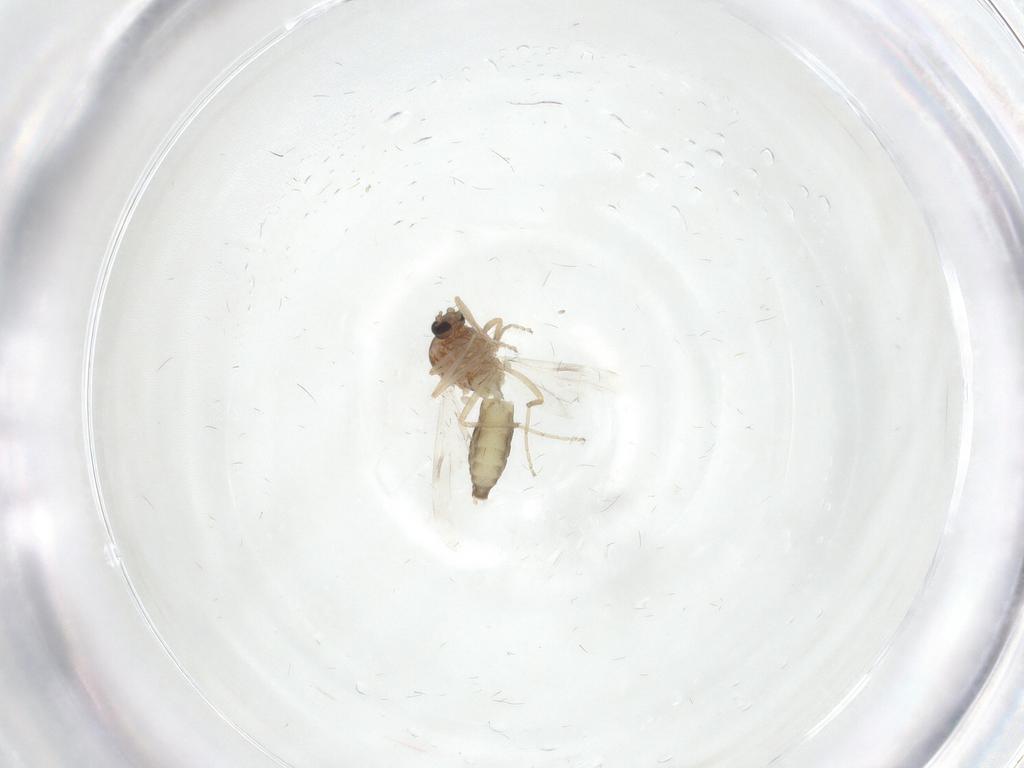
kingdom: Animalia
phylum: Arthropoda
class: Insecta
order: Diptera
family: Ceratopogonidae
